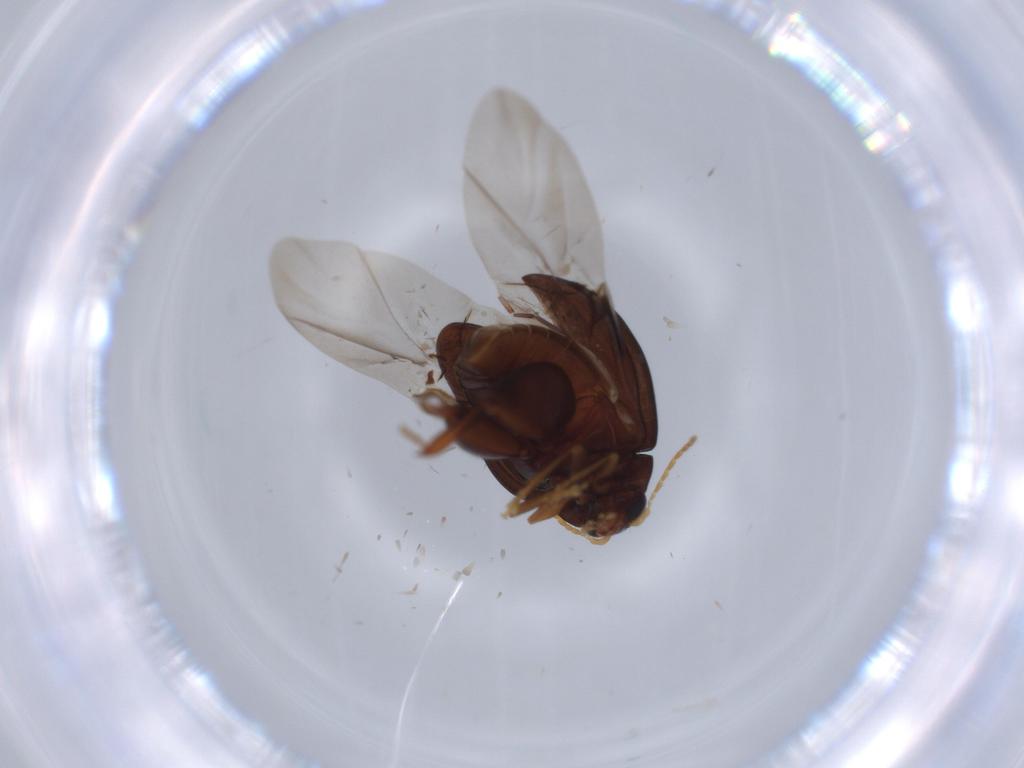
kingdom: Animalia
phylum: Arthropoda
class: Insecta
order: Coleoptera
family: Chrysomelidae
